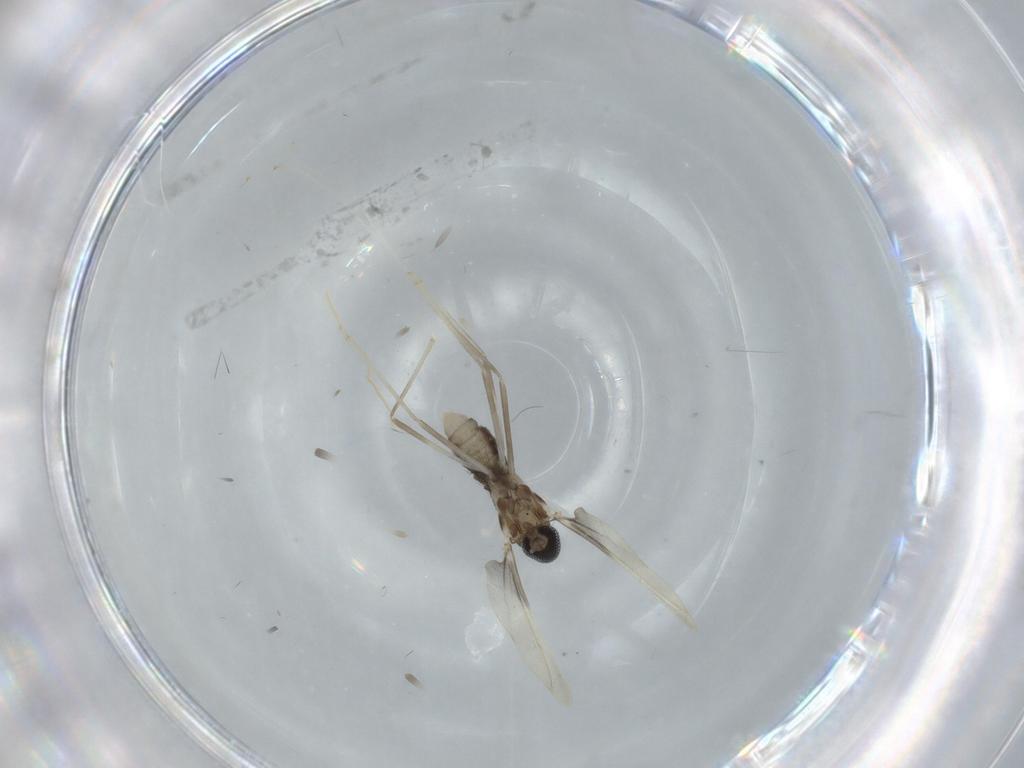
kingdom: Animalia
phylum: Arthropoda
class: Insecta
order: Diptera
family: Cecidomyiidae
